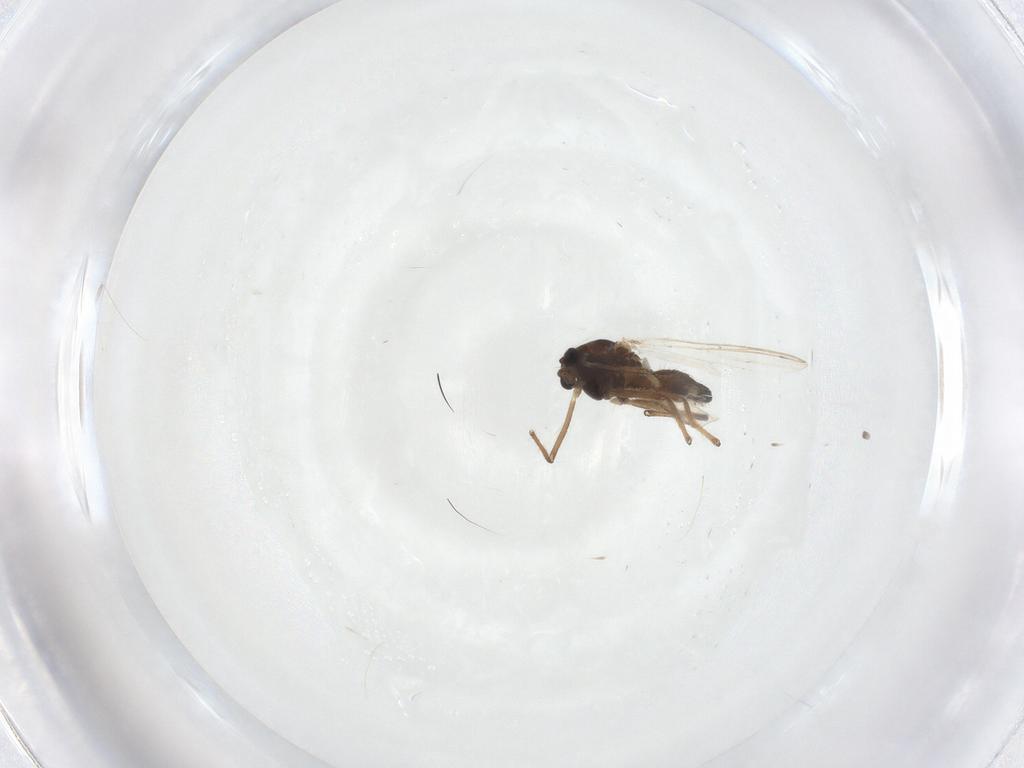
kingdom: Animalia
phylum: Arthropoda
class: Insecta
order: Diptera
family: Chironomidae
